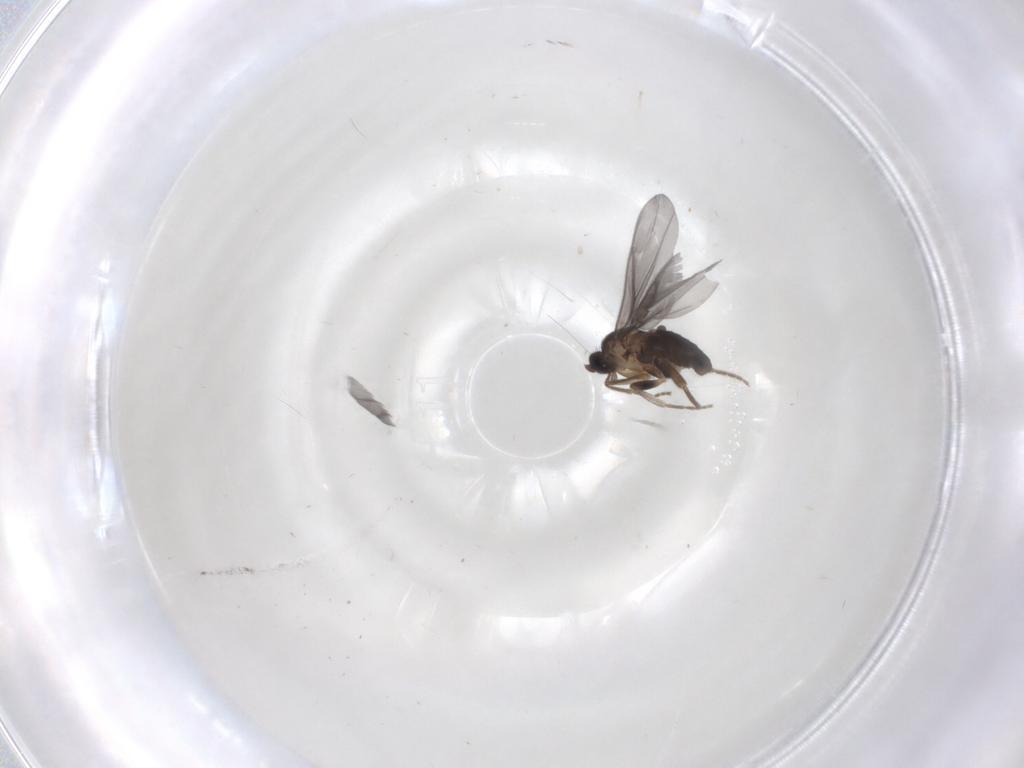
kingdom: Animalia
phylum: Arthropoda
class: Insecta
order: Diptera
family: Phoridae
